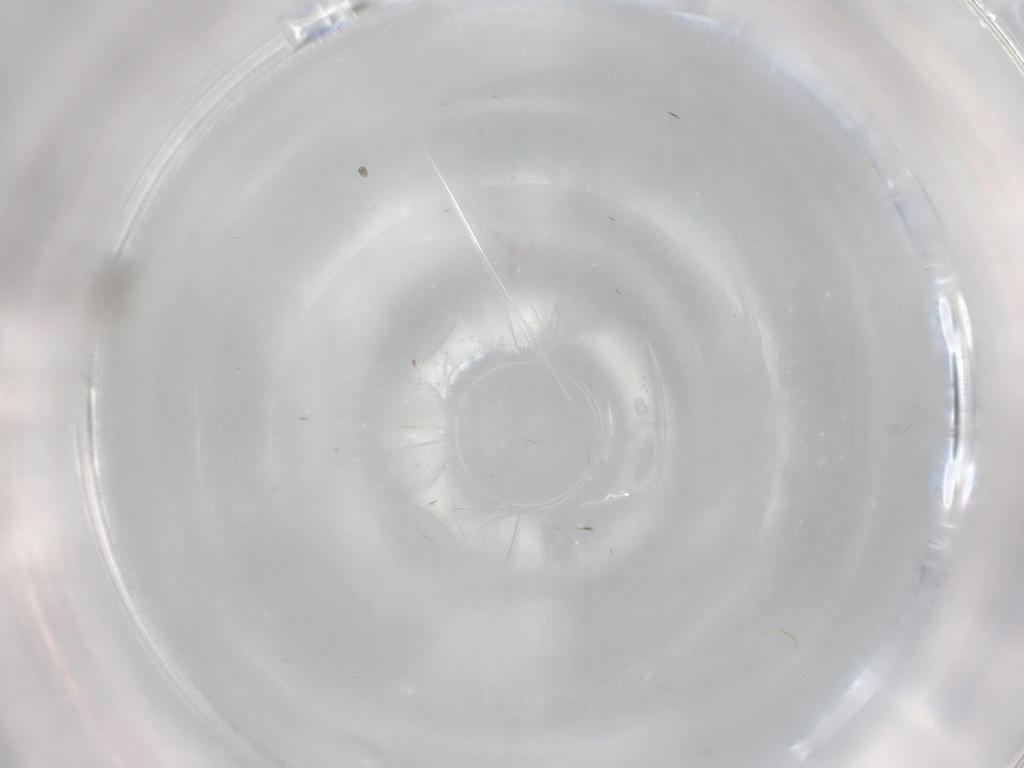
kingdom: Animalia
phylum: Arthropoda
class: Insecta
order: Diptera
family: Cecidomyiidae
